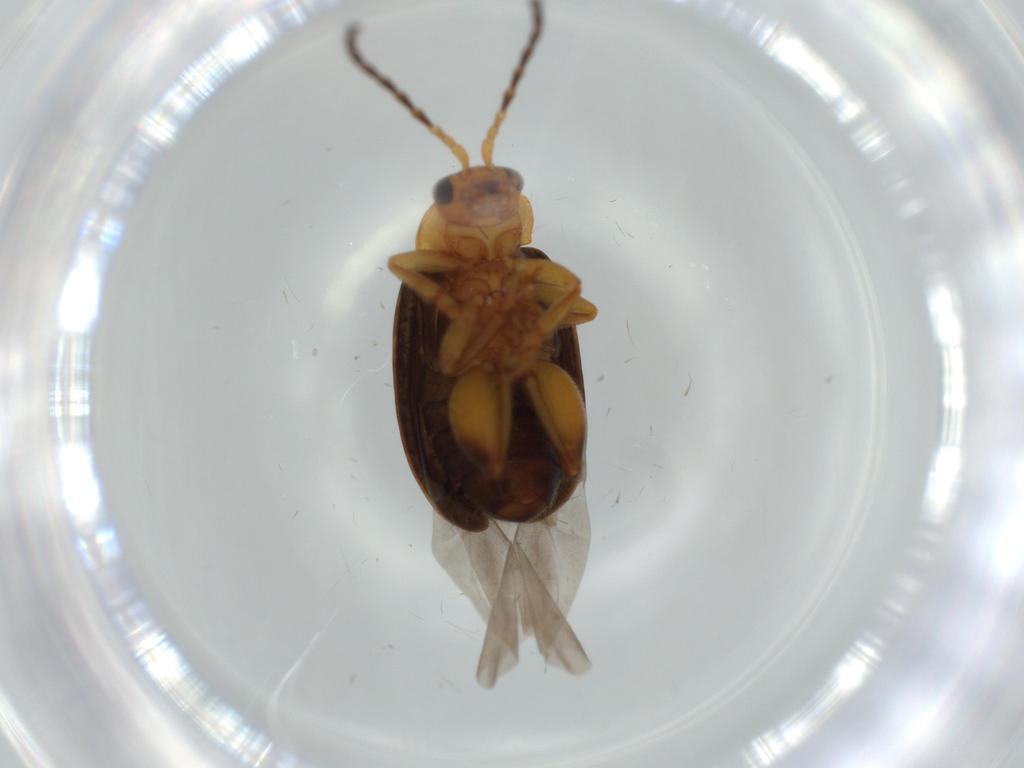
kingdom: Animalia
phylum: Arthropoda
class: Insecta
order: Coleoptera
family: Chrysomelidae
